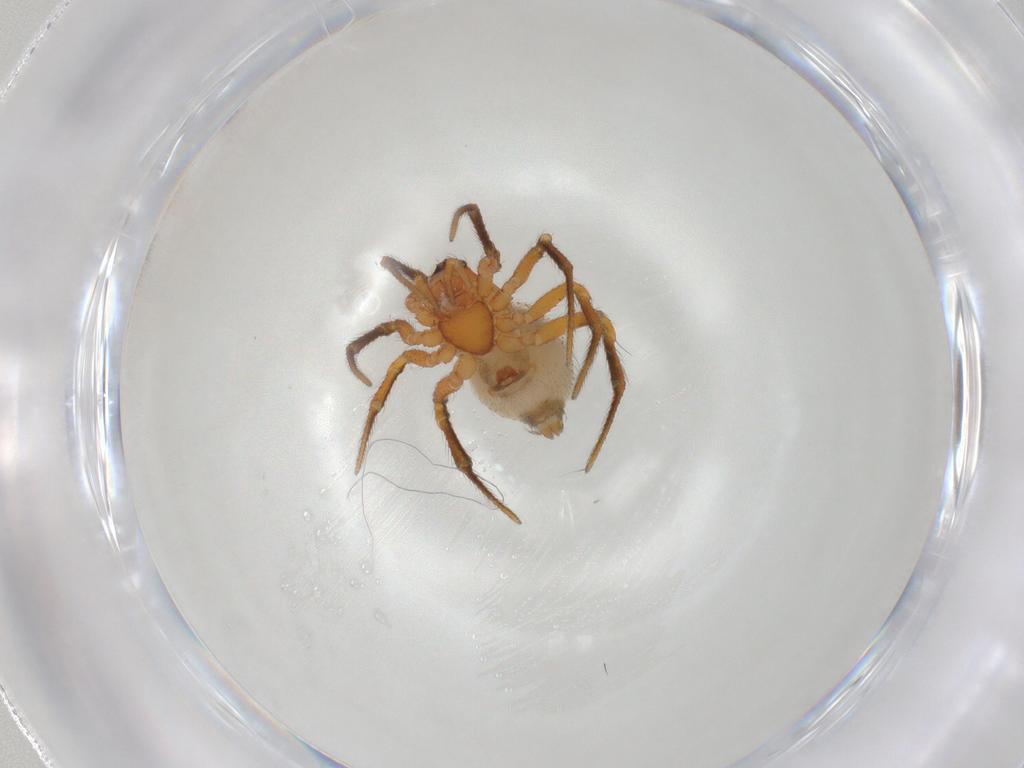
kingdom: Animalia
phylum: Arthropoda
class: Arachnida
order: Araneae
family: Theridiidae
